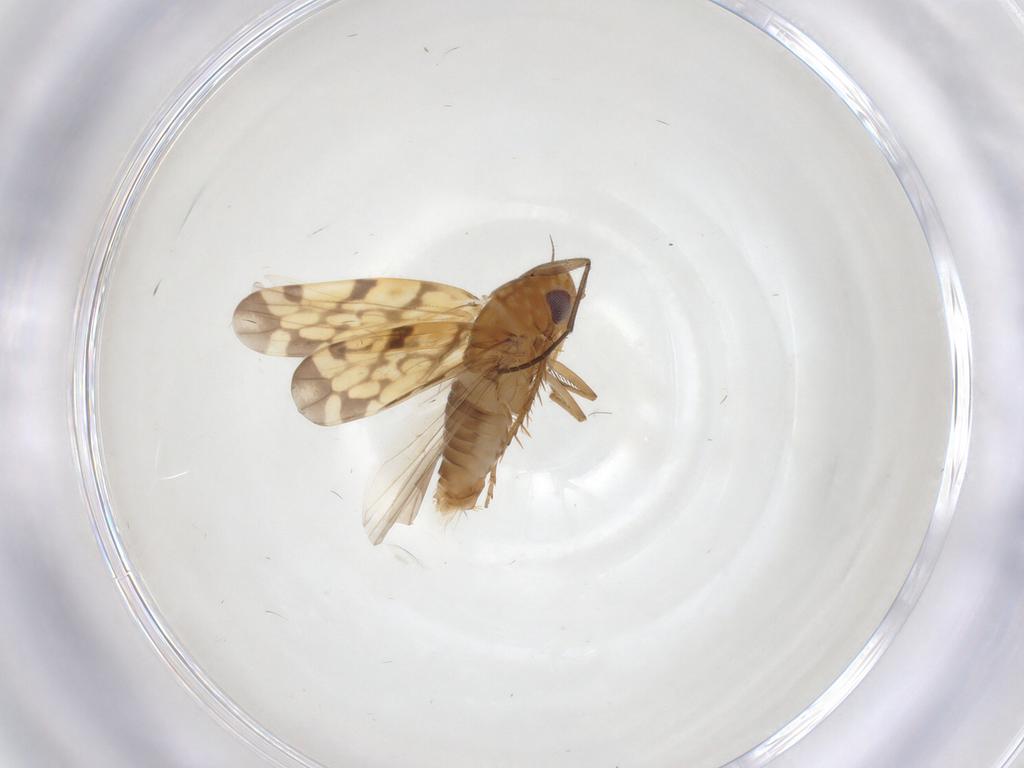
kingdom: Animalia
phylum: Arthropoda
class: Insecta
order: Hemiptera
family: Cicadellidae
